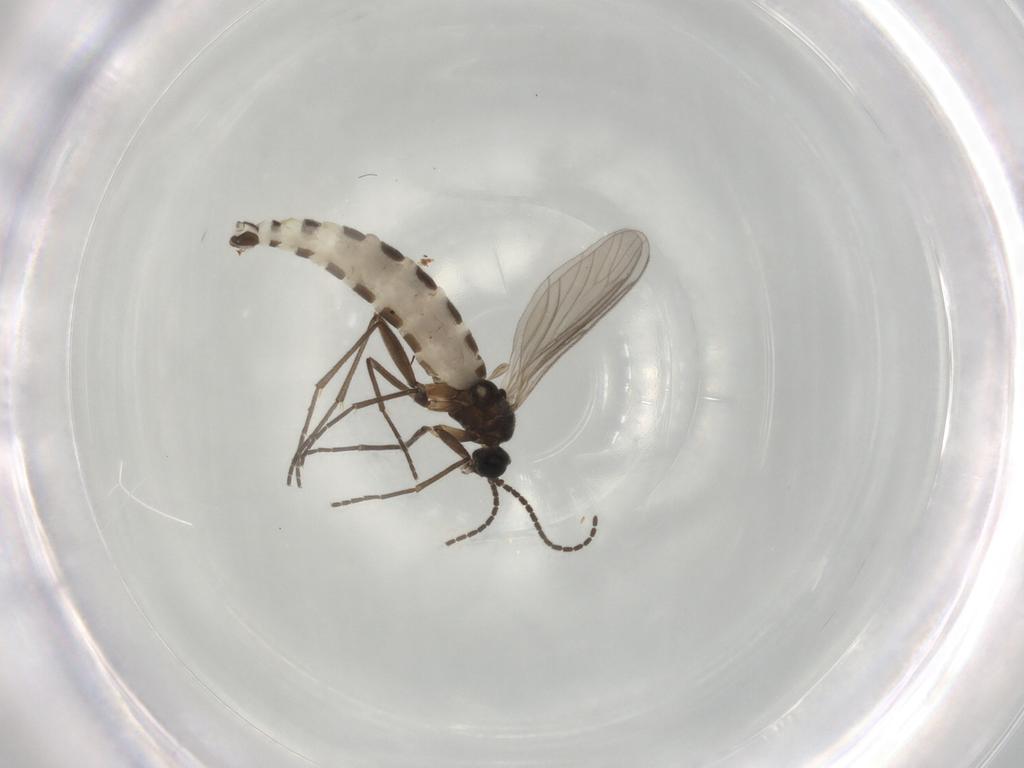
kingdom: Animalia
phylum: Arthropoda
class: Insecta
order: Diptera
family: Sciaridae
